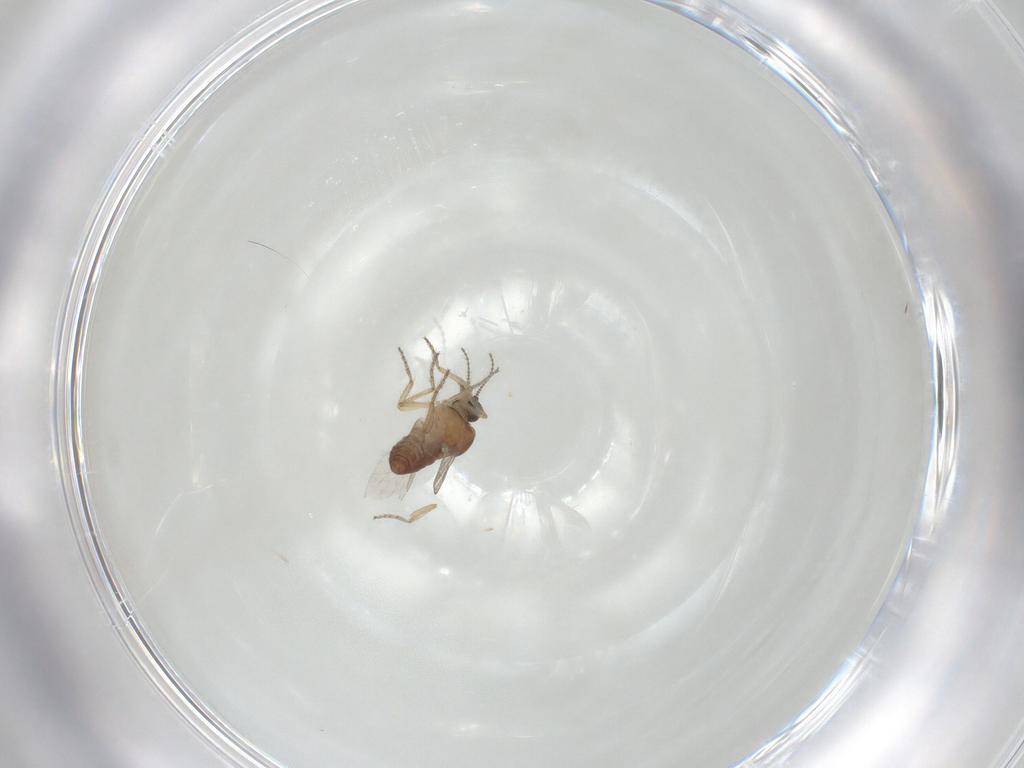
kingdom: Animalia
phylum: Arthropoda
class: Insecta
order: Diptera
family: Ceratopogonidae
